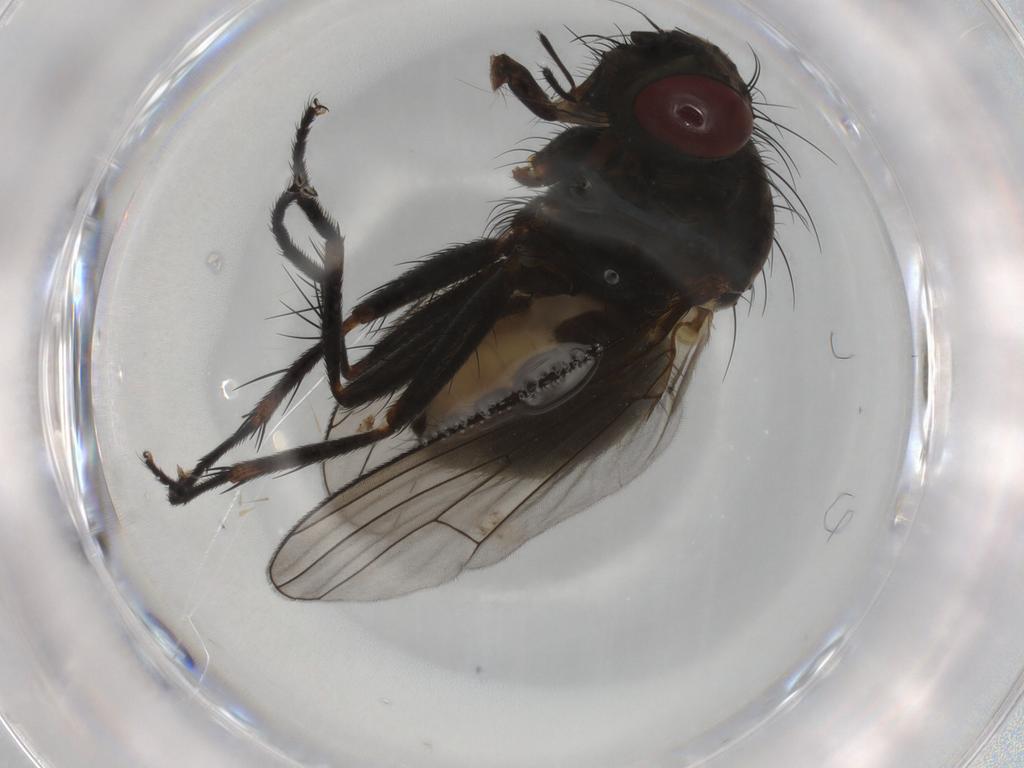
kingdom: Animalia
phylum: Arthropoda
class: Insecta
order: Diptera
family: Muscidae
